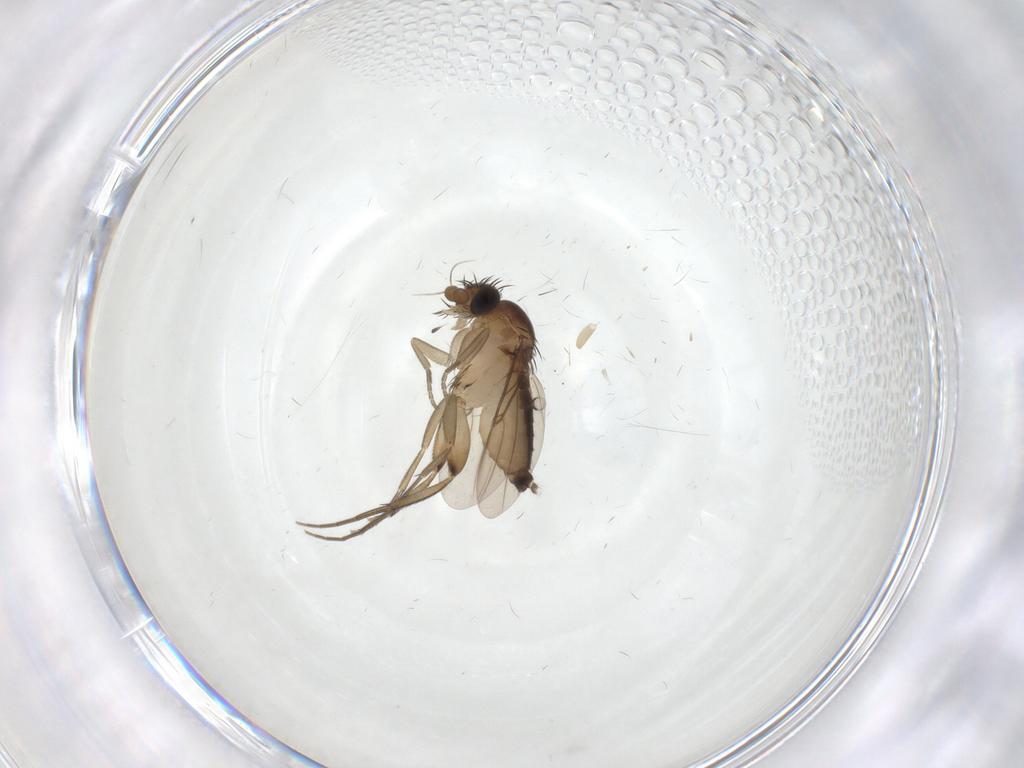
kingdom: Animalia
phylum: Arthropoda
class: Insecta
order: Diptera
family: Phoridae
